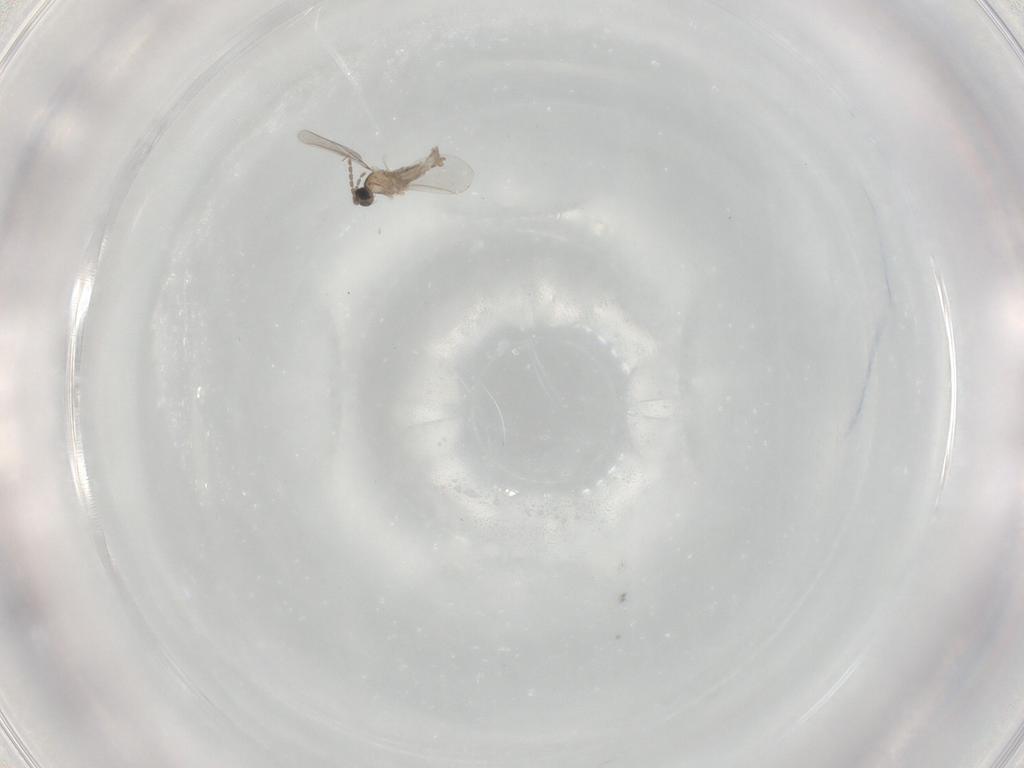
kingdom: Animalia
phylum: Arthropoda
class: Insecta
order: Diptera
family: Cecidomyiidae
